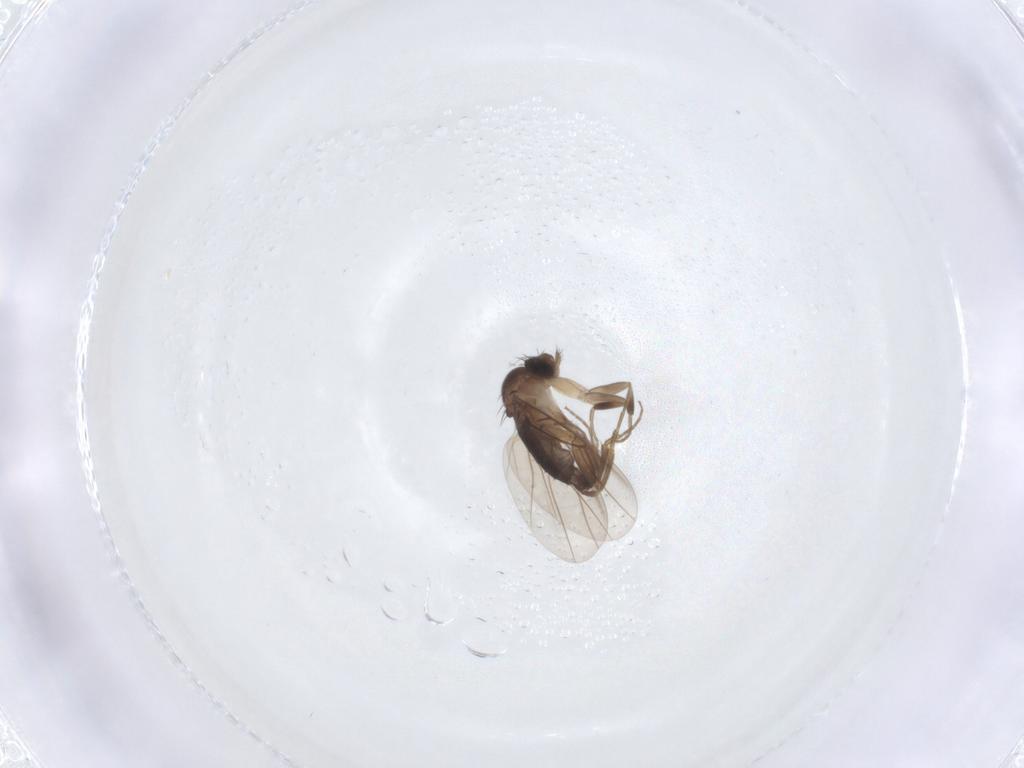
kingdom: Animalia
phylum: Arthropoda
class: Insecta
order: Diptera
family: Phoridae
